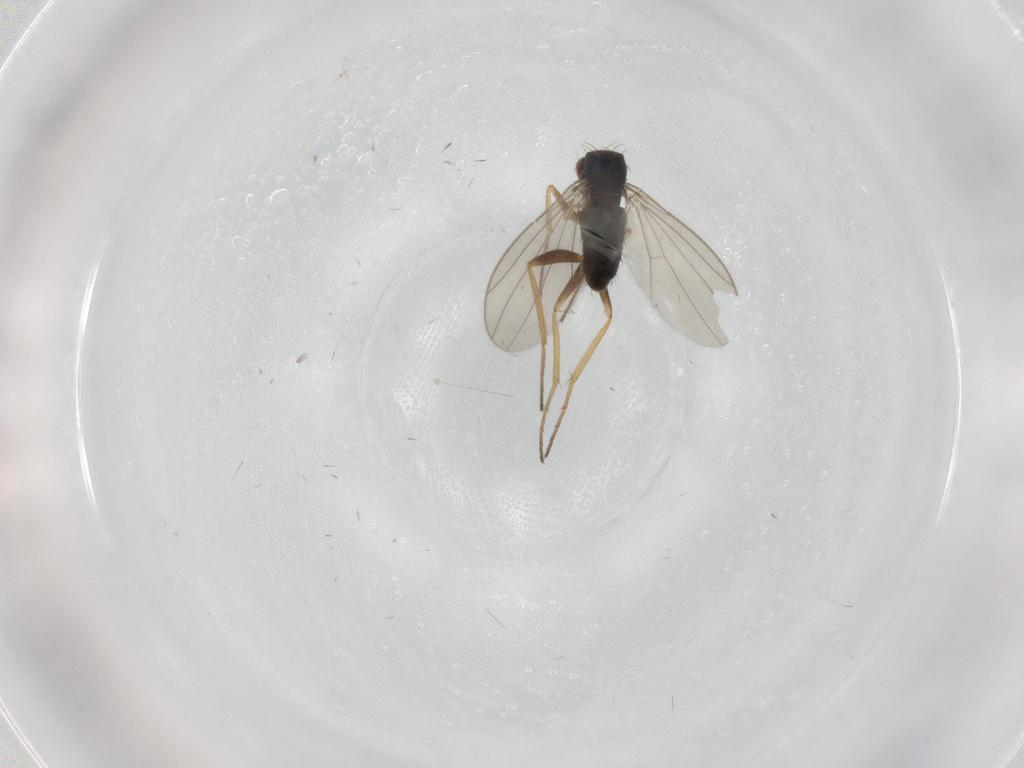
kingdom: Animalia
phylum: Arthropoda
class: Insecta
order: Diptera
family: Dolichopodidae
